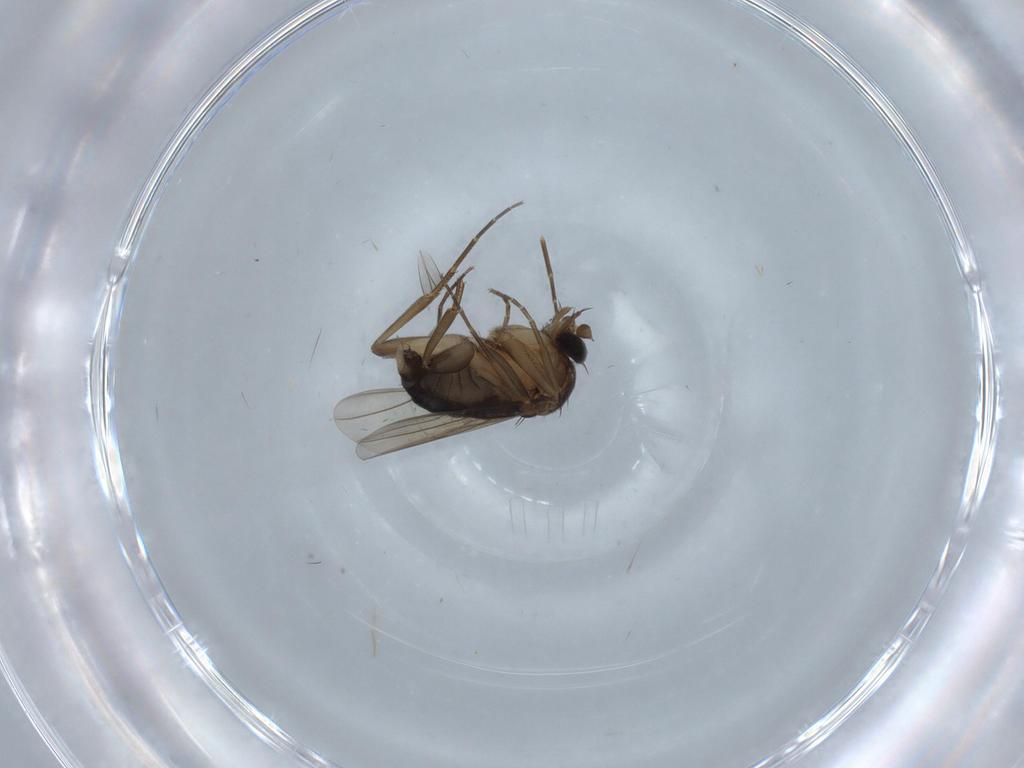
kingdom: Animalia
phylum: Arthropoda
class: Insecta
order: Diptera
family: Chironomidae
